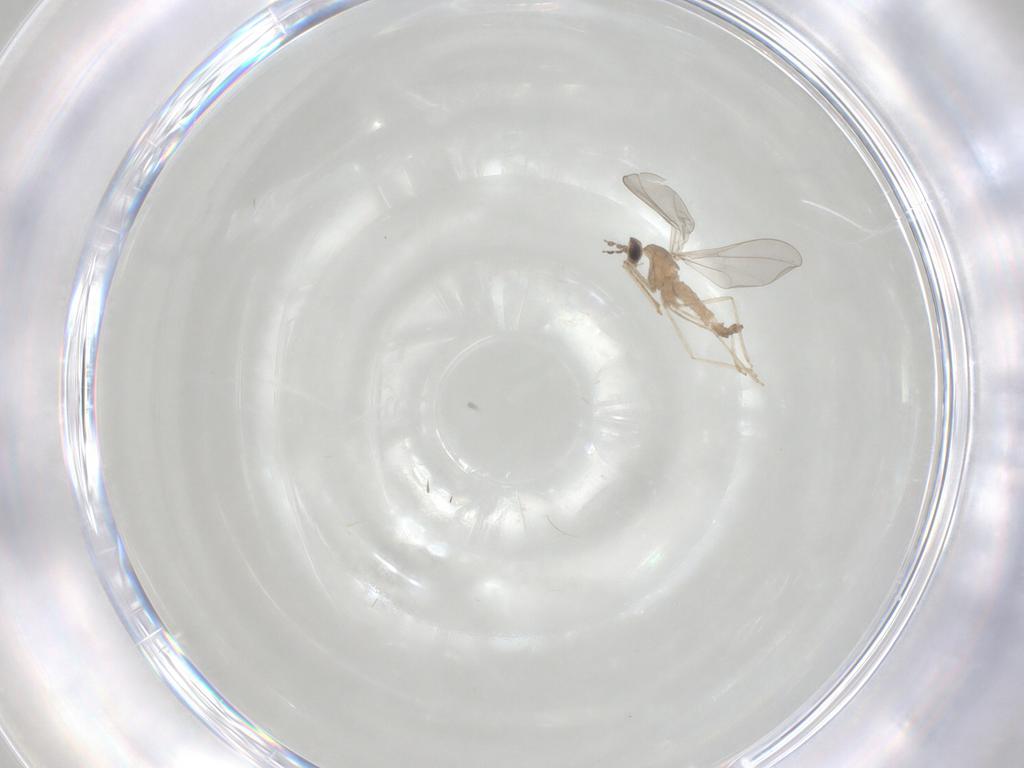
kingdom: Animalia
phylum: Arthropoda
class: Insecta
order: Diptera
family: Cecidomyiidae
